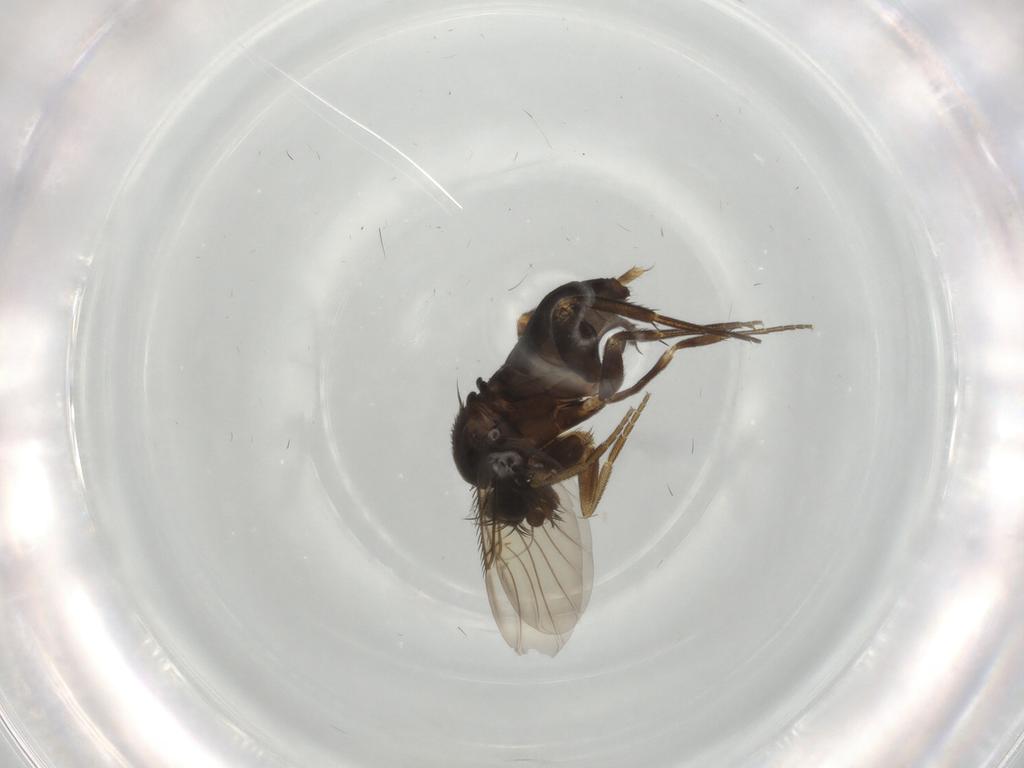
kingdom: Animalia
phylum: Arthropoda
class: Insecta
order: Diptera
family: Phoridae
